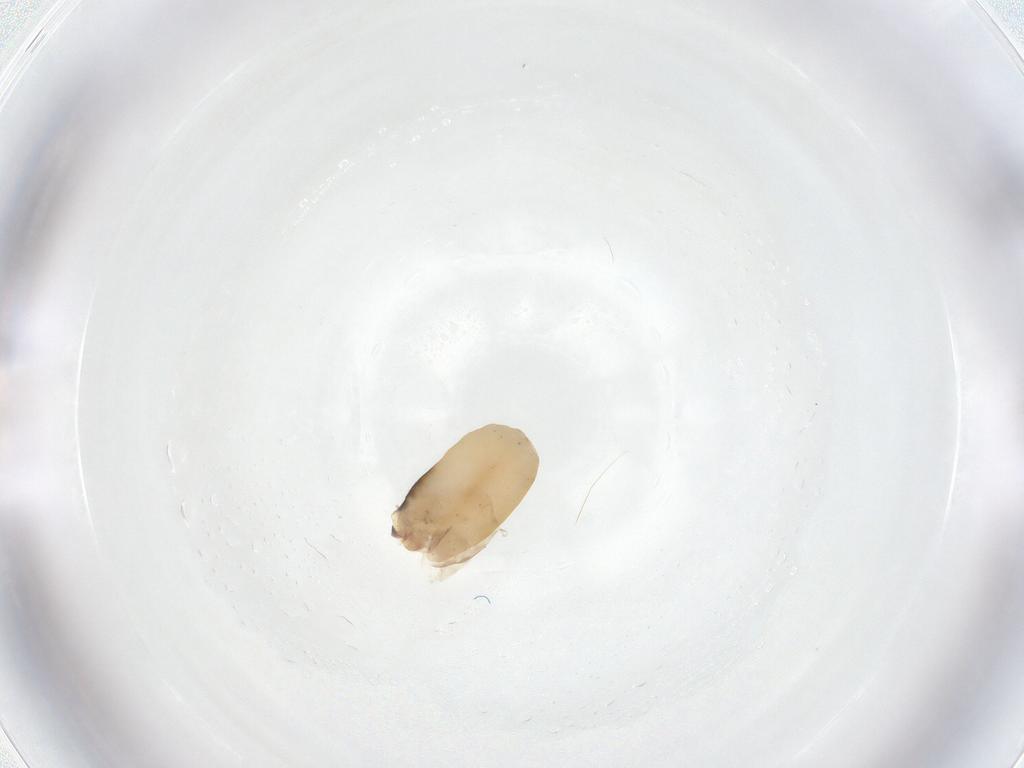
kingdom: Animalia
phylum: Arthropoda
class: Insecta
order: Hymenoptera
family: Dryinidae
